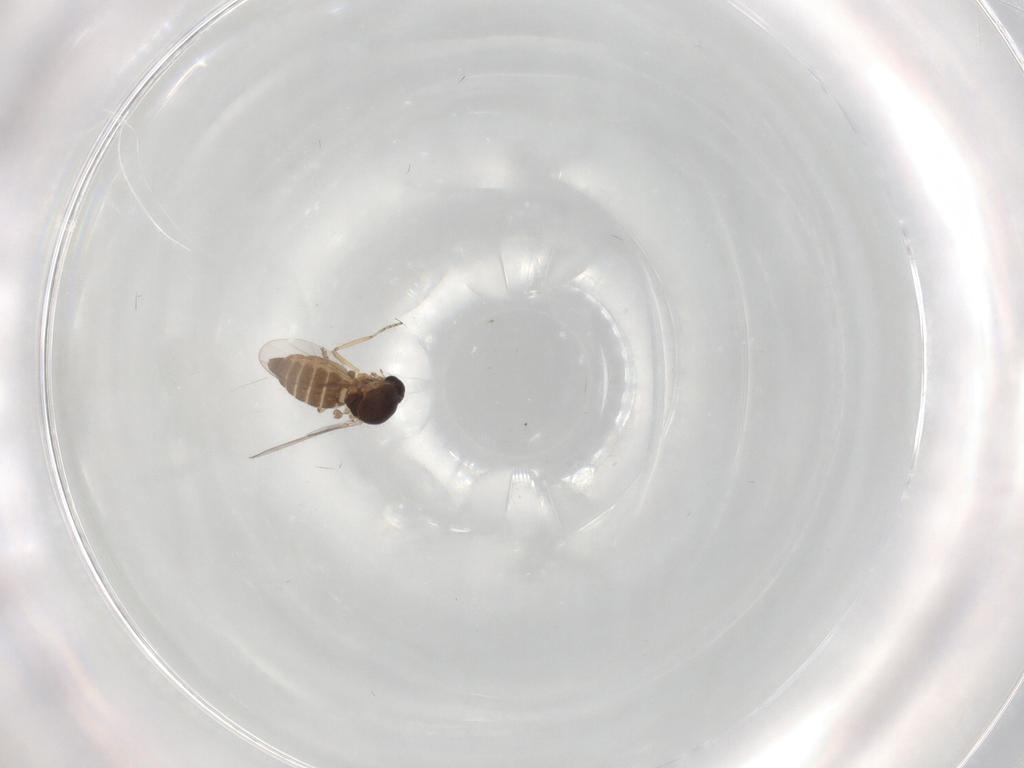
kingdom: Animalia
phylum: Arthropoda
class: Insecta
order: Diptera
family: Ceratopogonidae
